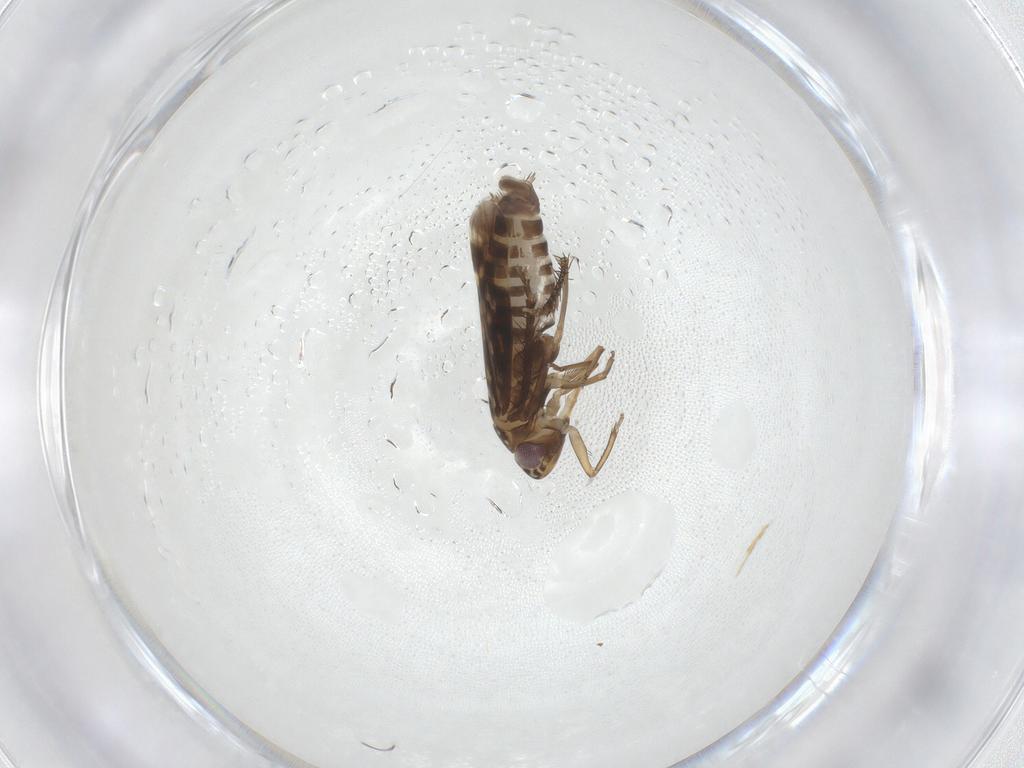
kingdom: Animalia
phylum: Arthropoda
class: Insecta
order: Hemiptera
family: Cicadellidae
